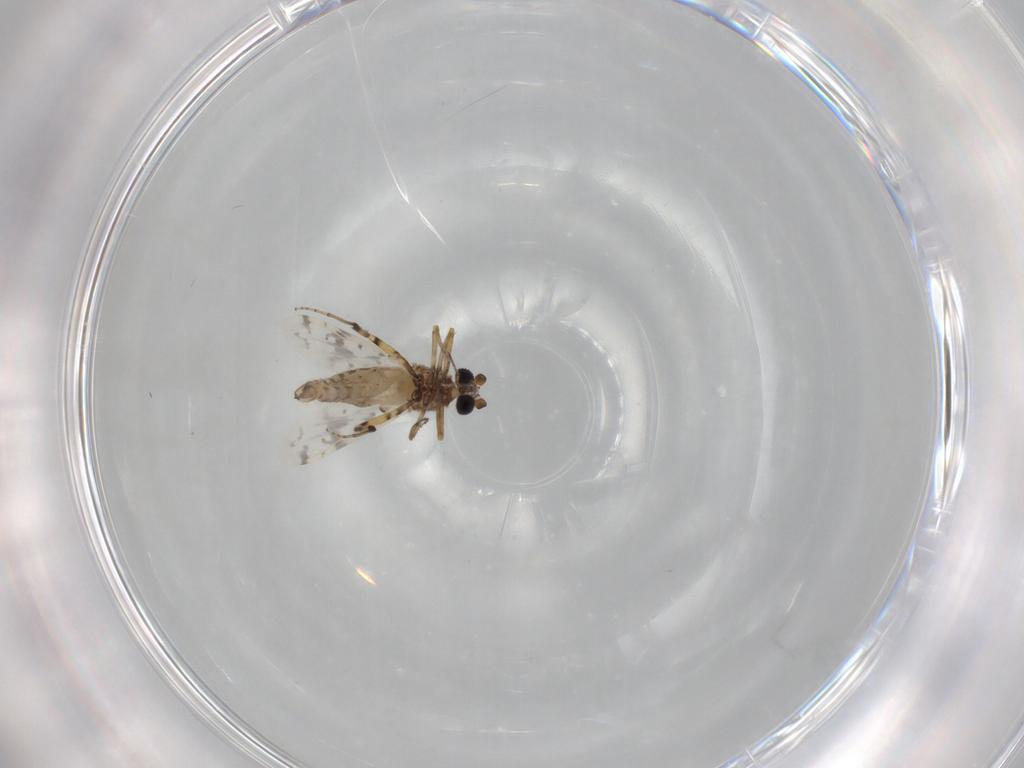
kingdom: Animalia
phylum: Arthropoda
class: Insecta
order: Diptera
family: Ceratopogonidae
